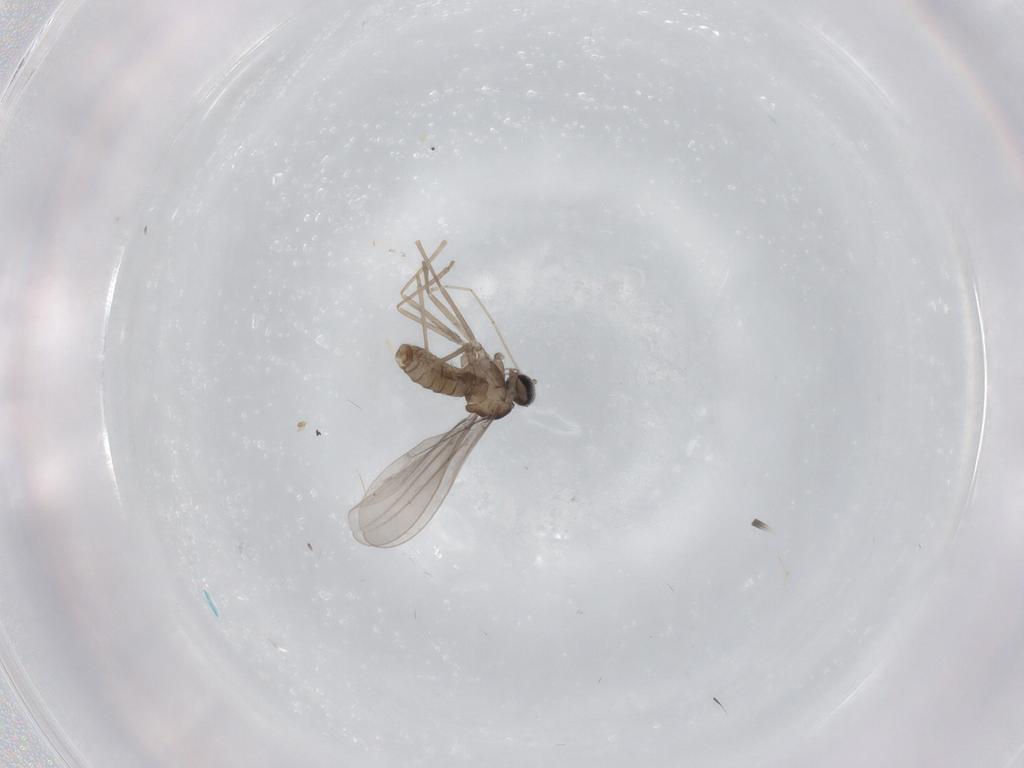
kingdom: Animalia
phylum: Arthropoda
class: Insecta
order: Diptera
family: Cecidomyiidae
